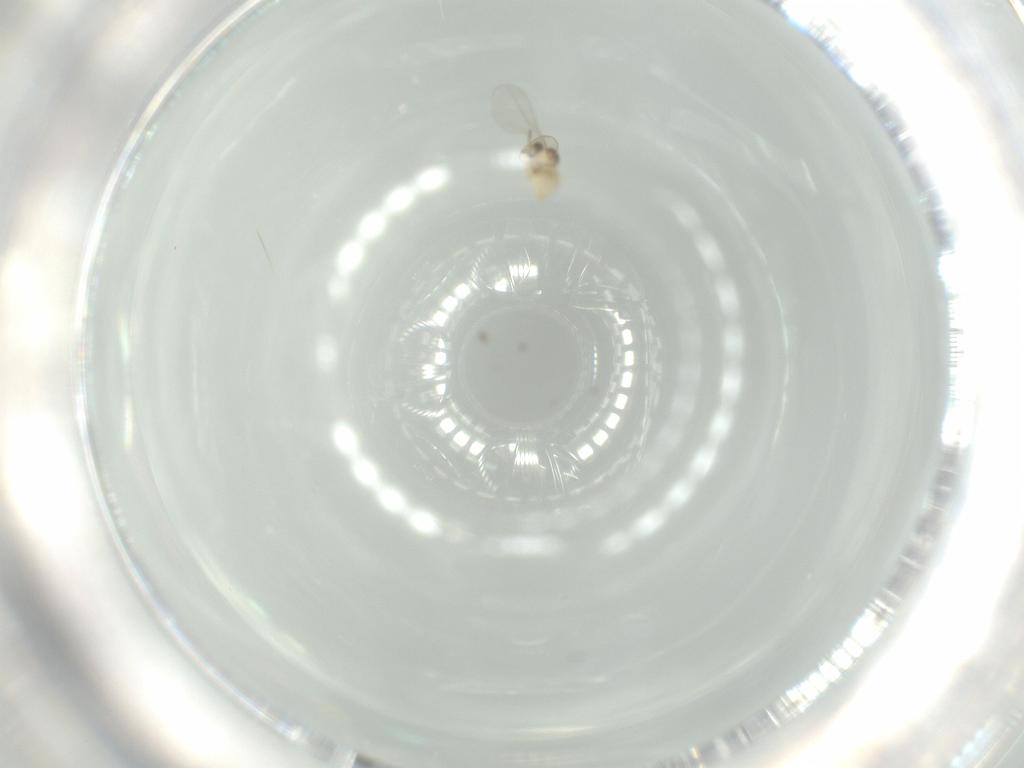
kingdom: Animalia
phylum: Arthropoda
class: Insecta
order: Diptera
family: Cecidomyiidae
